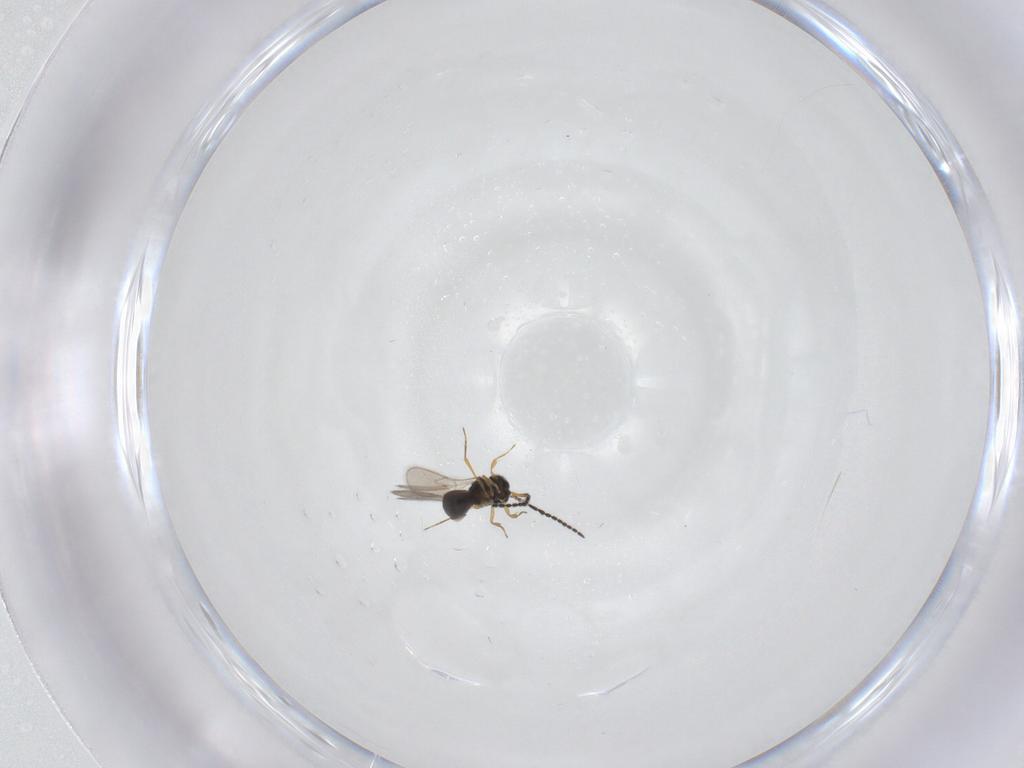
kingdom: Animalia
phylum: Arthropoda
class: Insecta
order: Hymenoptera
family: Scelionidae
